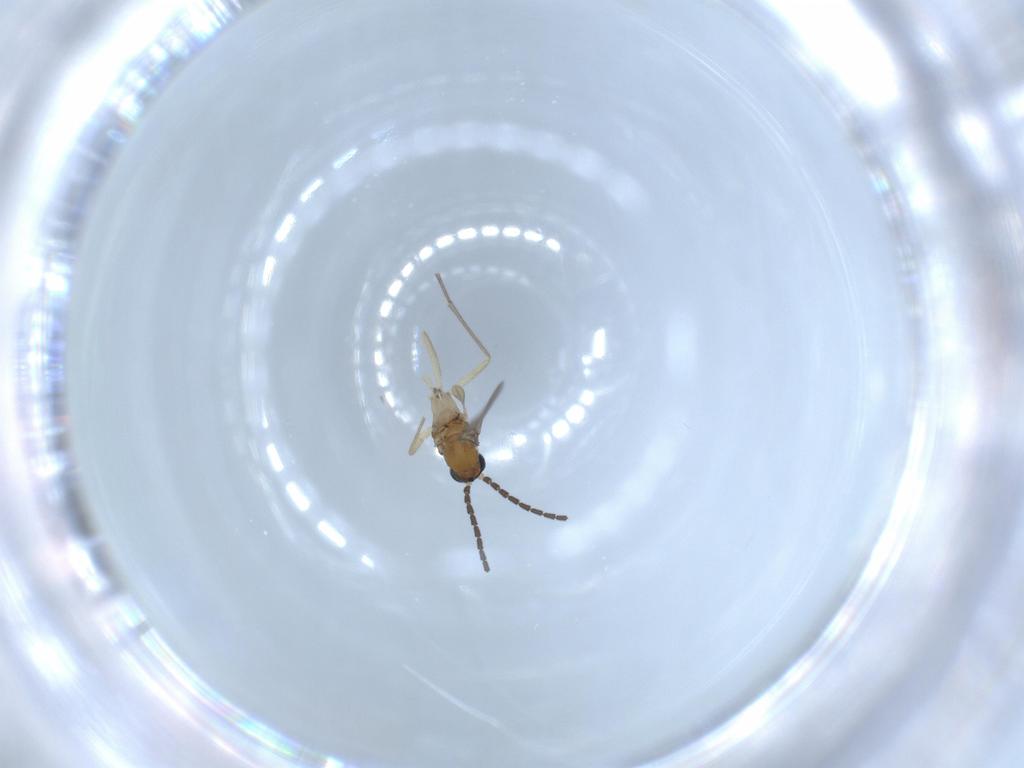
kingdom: Animalia
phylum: Arthropoda
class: Insecta
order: Diptera
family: Sciaridae
